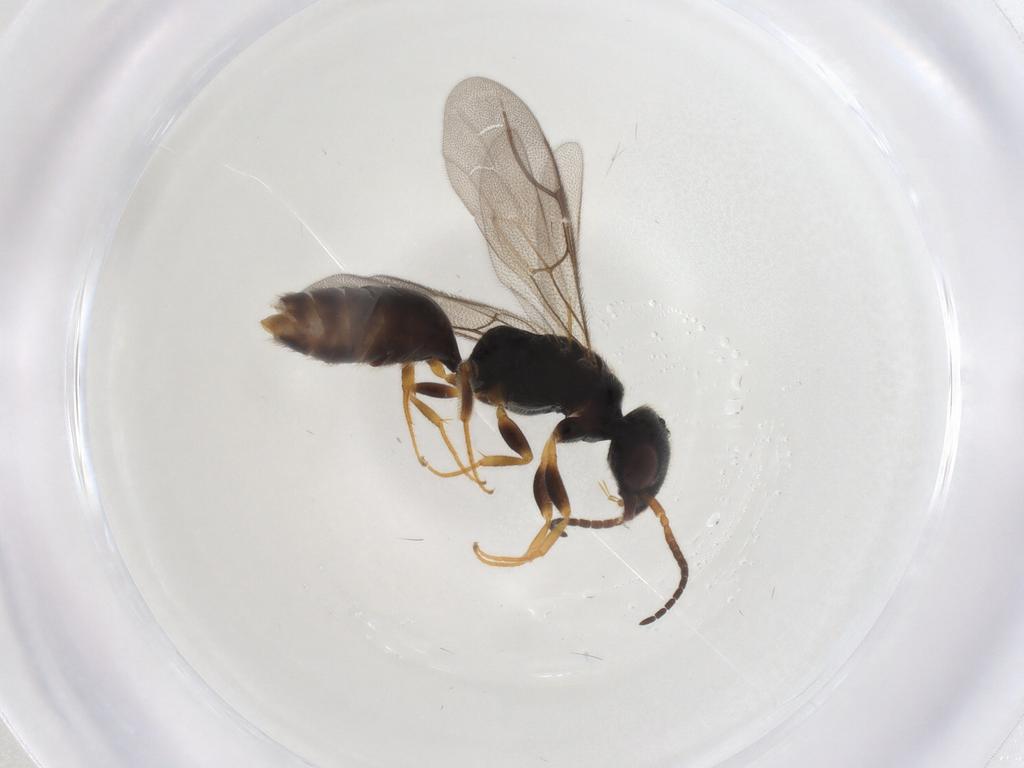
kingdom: Animalia
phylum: Arthropoda
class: Insecta
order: Hymenoptera
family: Bethylidae
